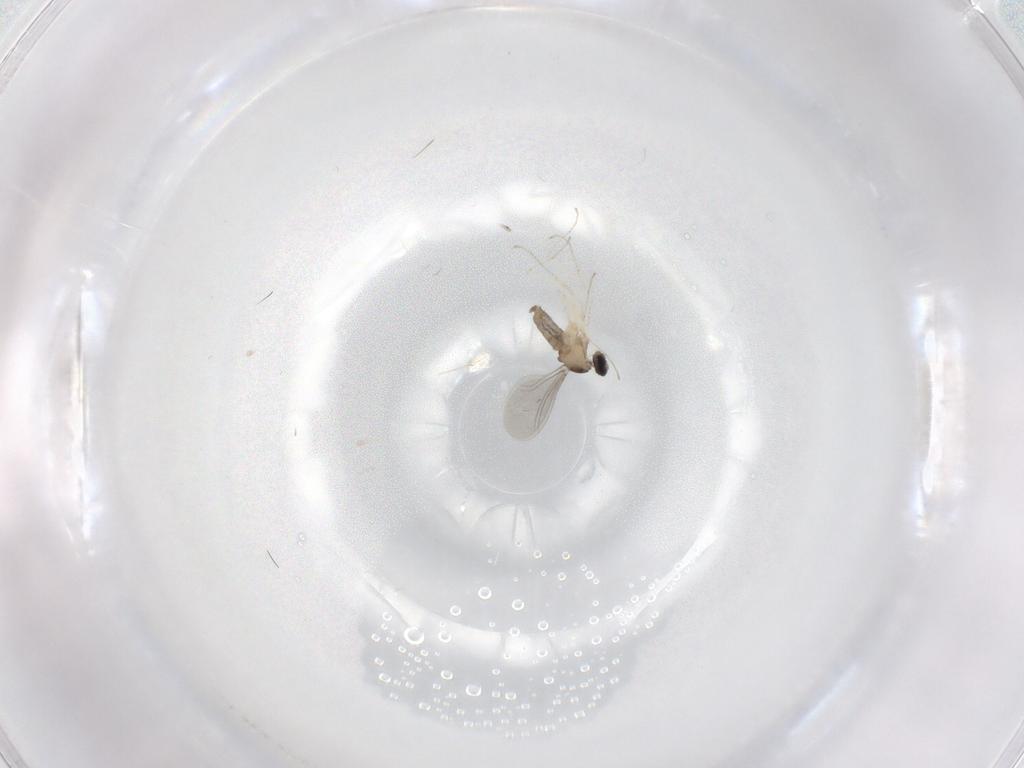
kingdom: Animalia
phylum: Arthropoda
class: Insecta
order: Diptera
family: Cecidomyiidae
